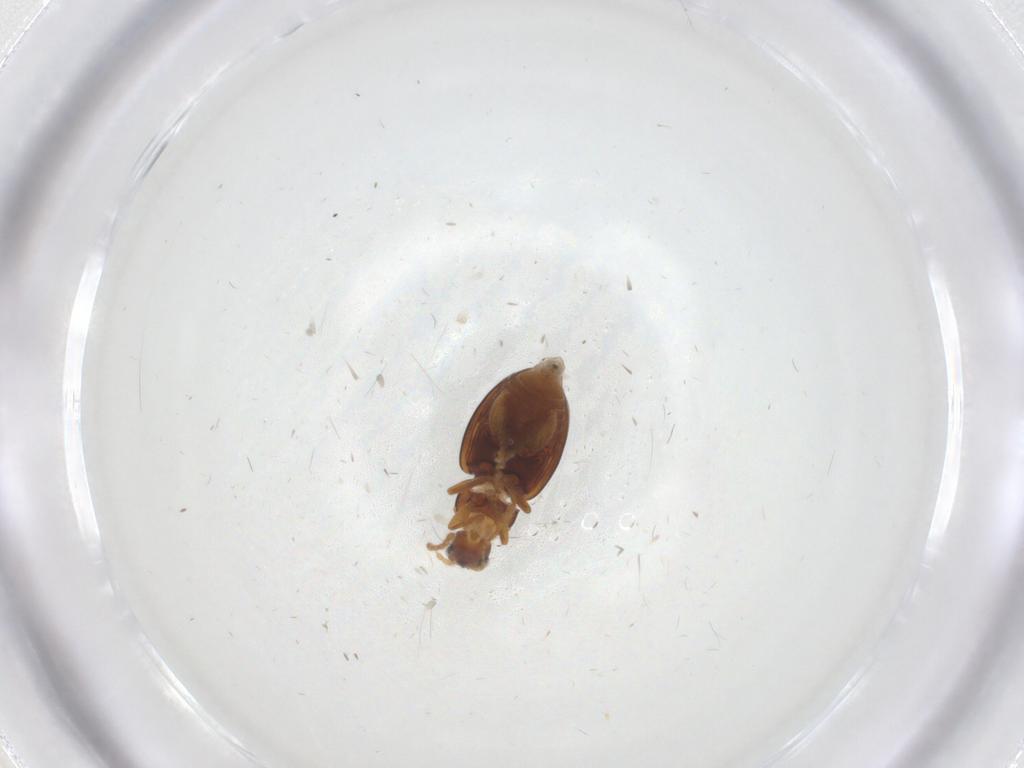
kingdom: Animalia
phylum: Arthropoda
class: Insecta
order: Coleoptera
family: Chrysomelidae
